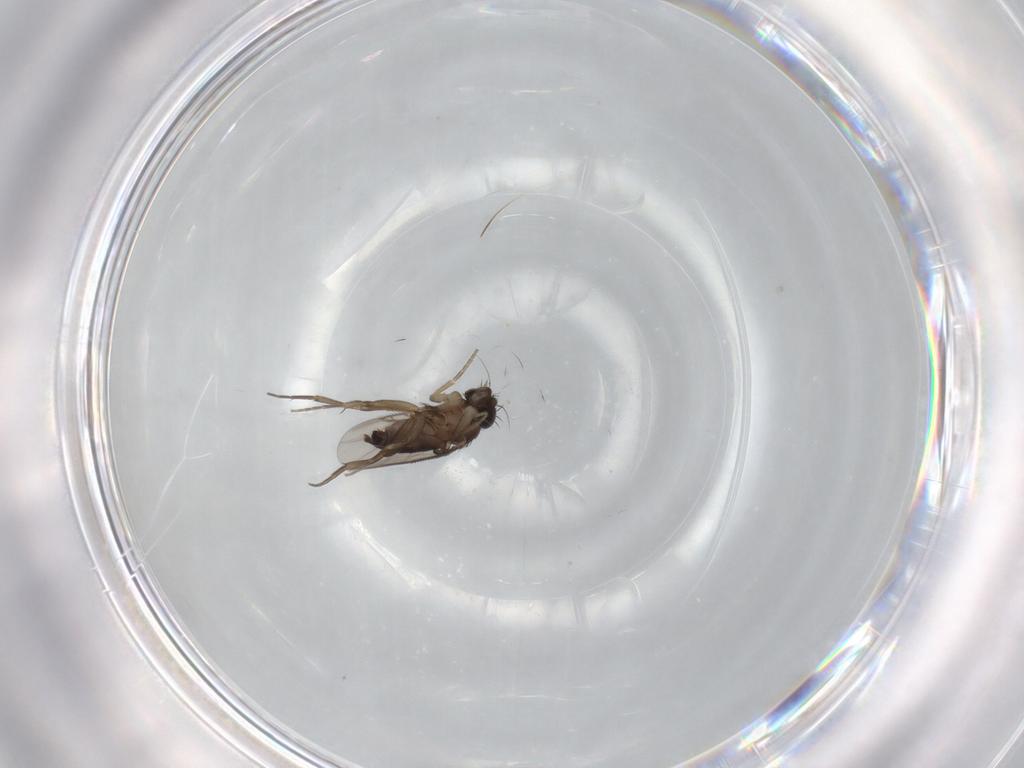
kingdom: Animalia
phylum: Arthropoda
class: Insecta
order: Diptera
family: Phoridae
